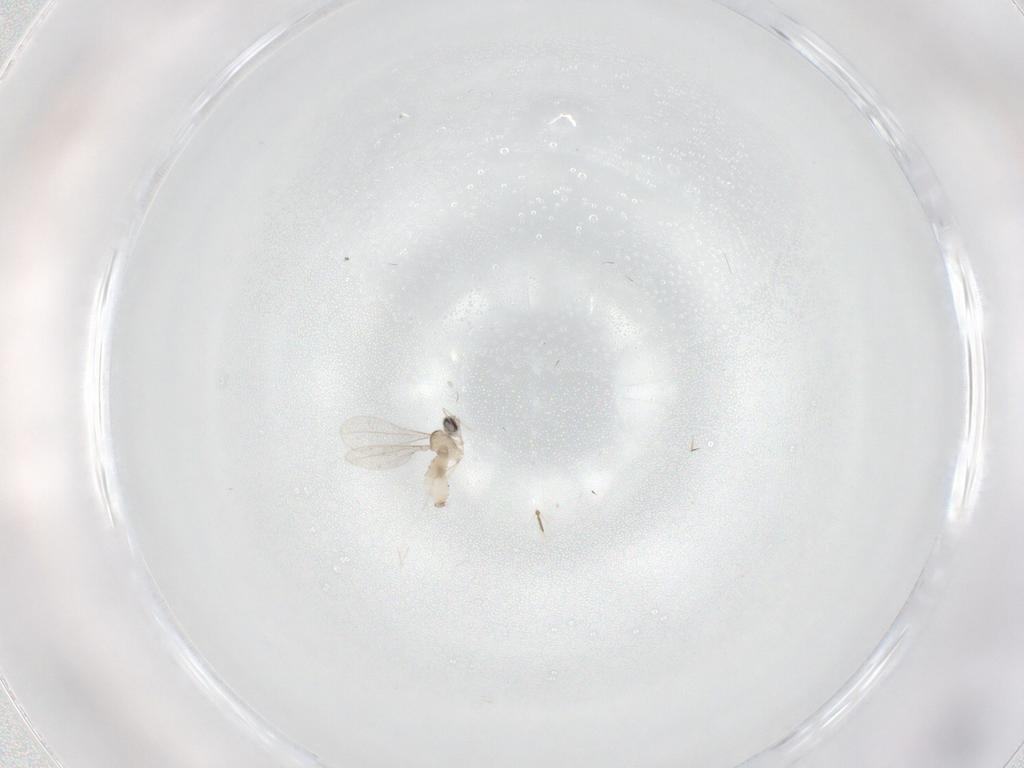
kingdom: Animalia
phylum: Arthropoda
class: Insecta
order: Diptera
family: Chironomidae
